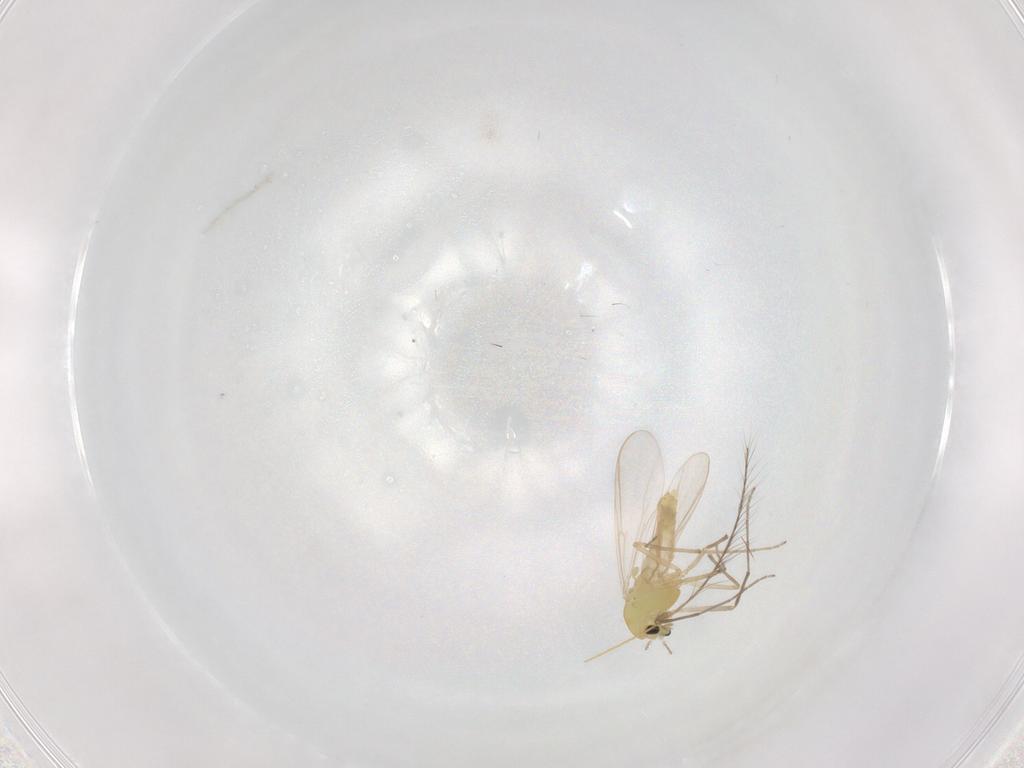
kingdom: Animalia
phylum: Arthropoda
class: Insecta
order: Diptera
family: Chironomidae
